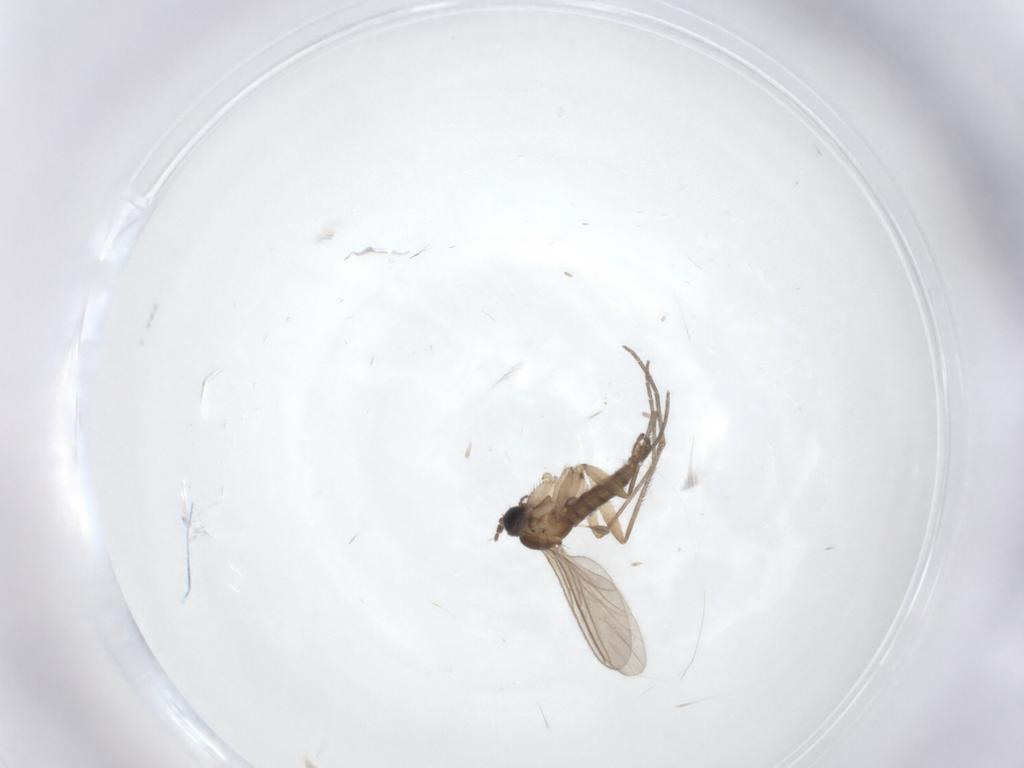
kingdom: Animalia
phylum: Arthropoda
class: Insecta
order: Diptera
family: Sciaridae
